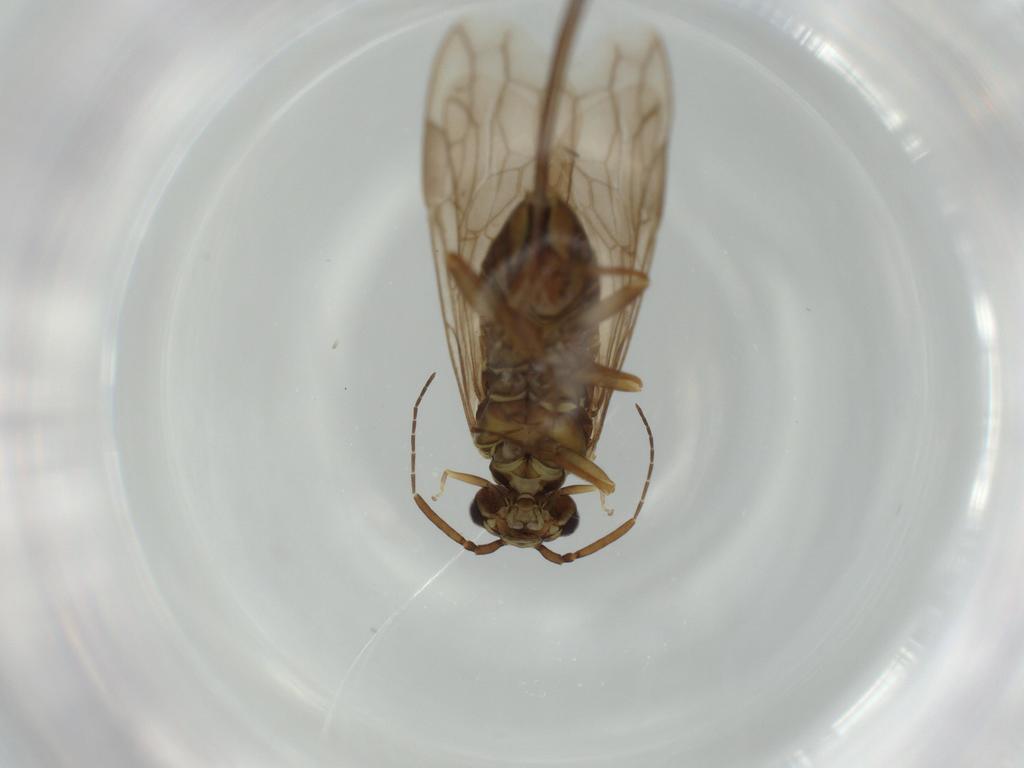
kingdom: Animalia
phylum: Arthropoda
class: Insecta
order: Hymenoptera
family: Xyelidae
